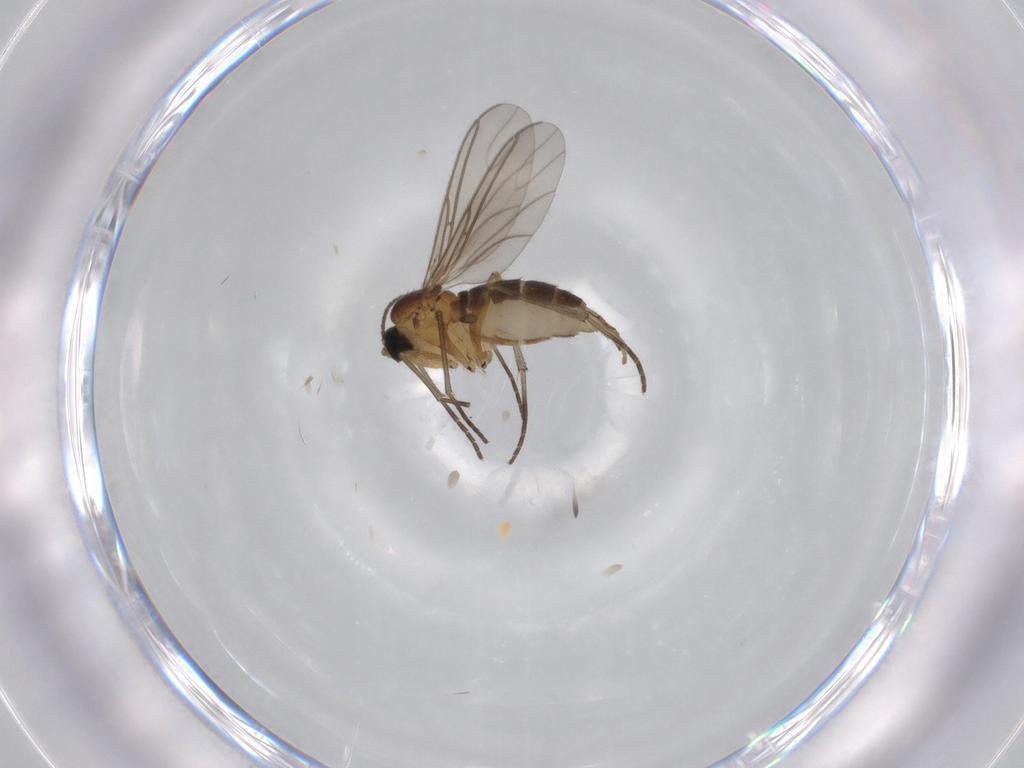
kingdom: Animalia
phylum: Arthropoda
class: Insecta
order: Diptera
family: Sciaridae
